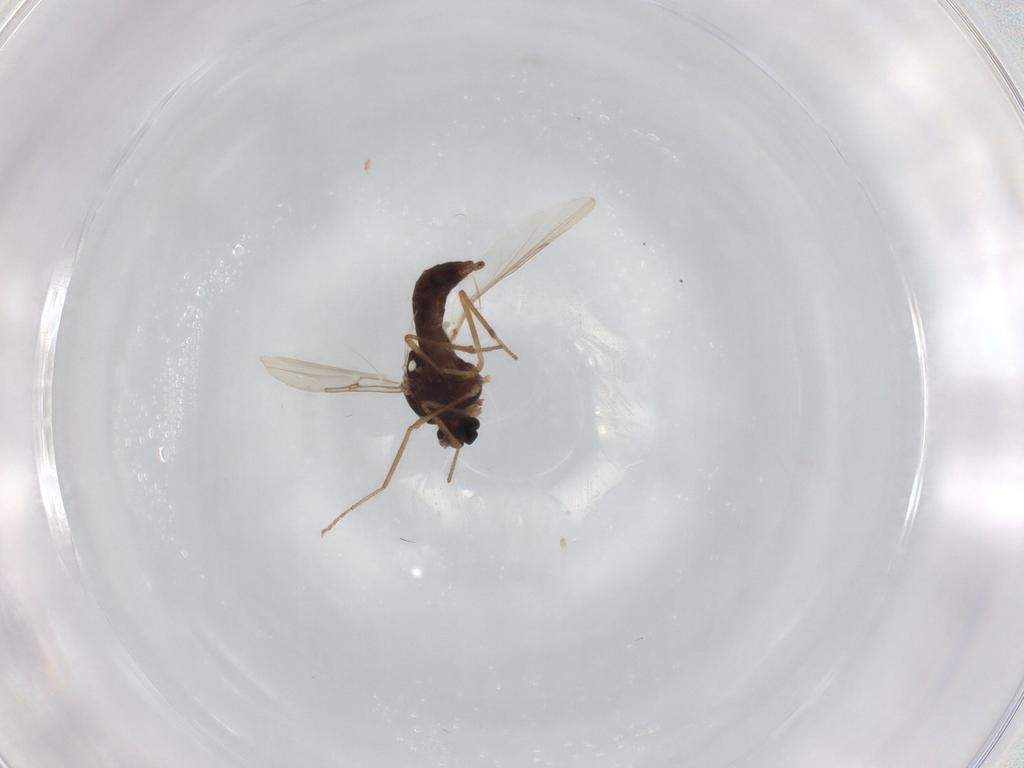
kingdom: Animalia
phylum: Arthropoda
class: Insecta
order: Diptera
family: Ceratopogonidae
